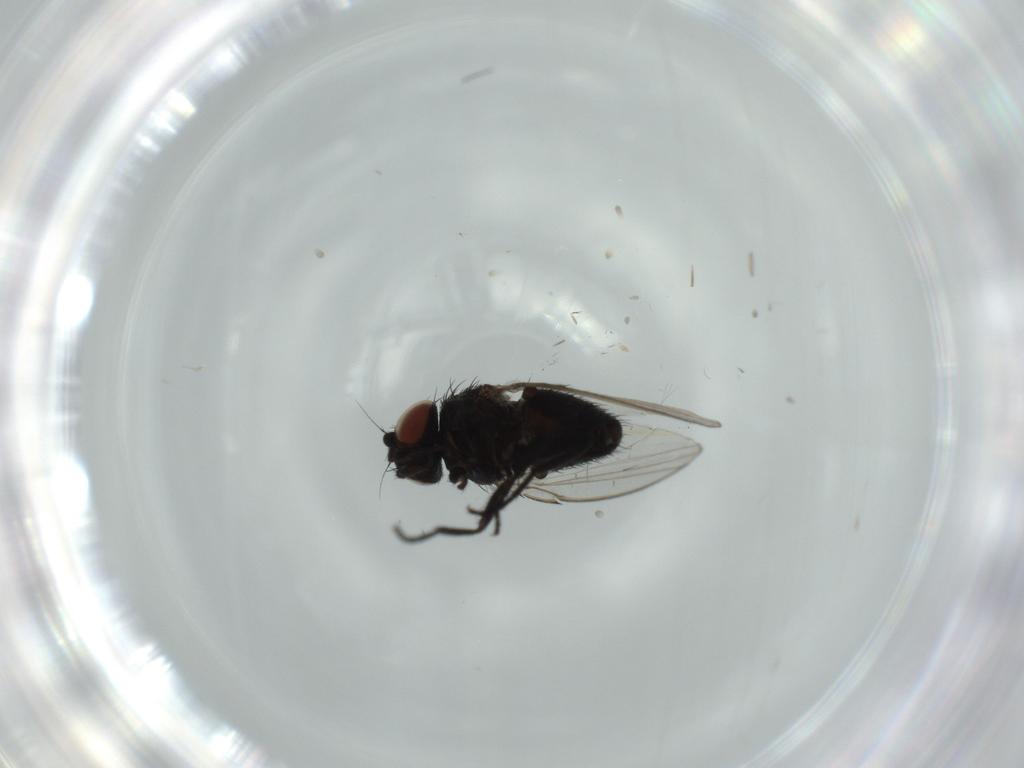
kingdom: Animalia
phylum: Arthropoda
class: Insecta
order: Diptera
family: Milichiidae
